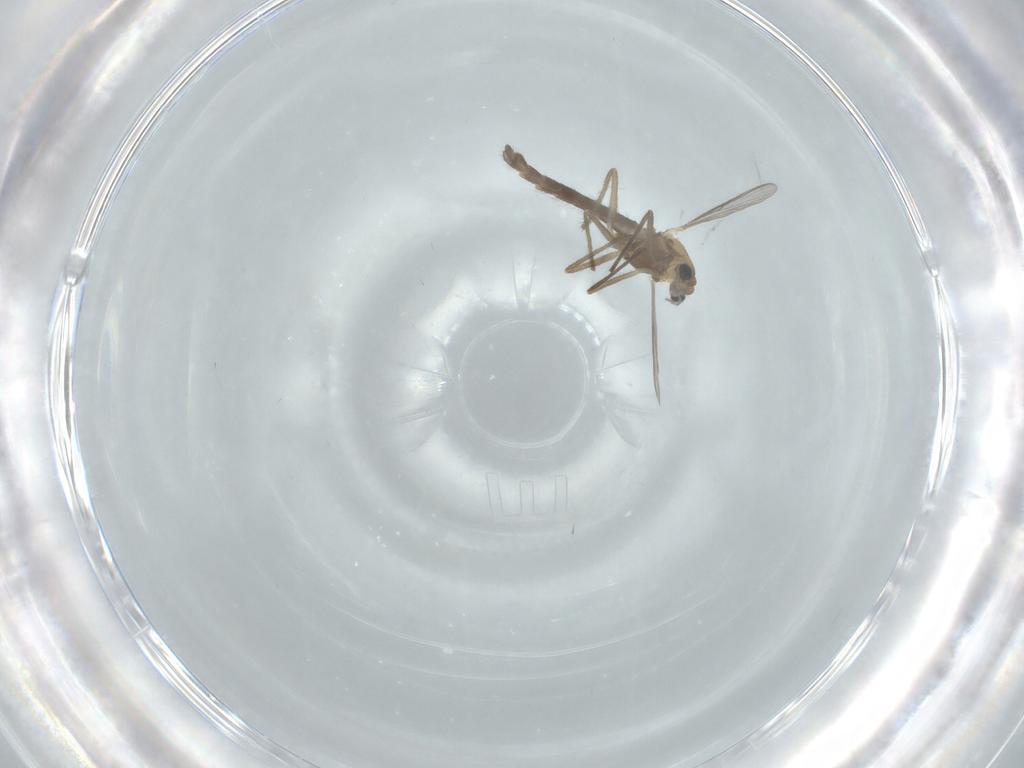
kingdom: Animalia
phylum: Arthropoda
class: Insecta
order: Diptera
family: Chironomidae
